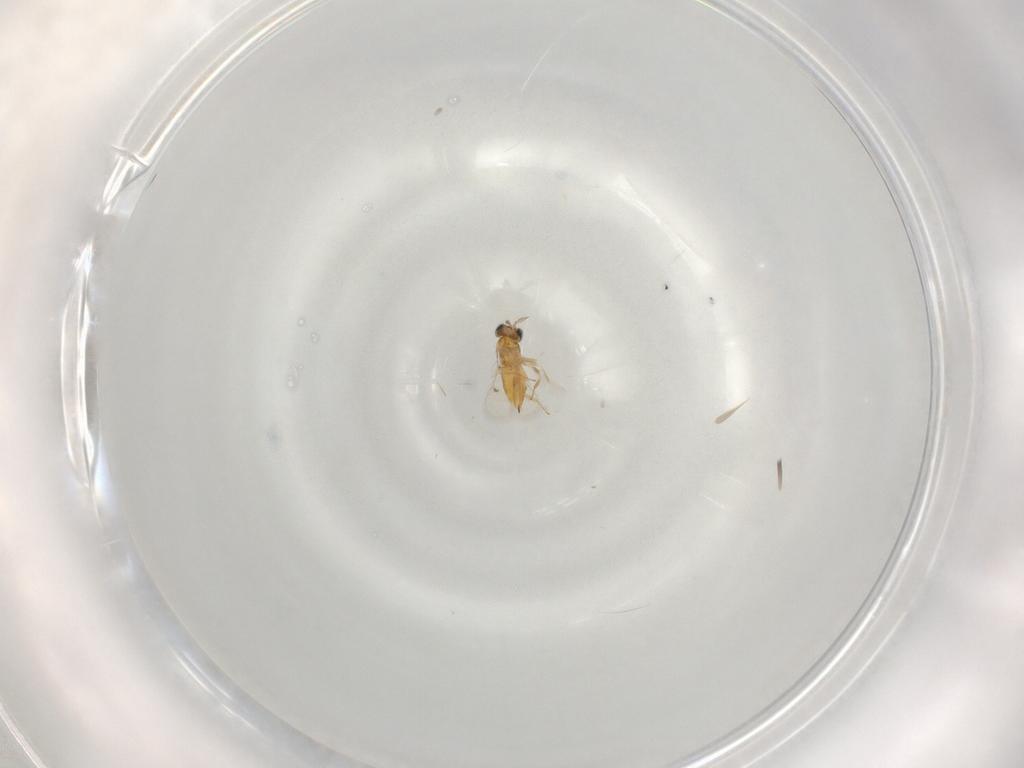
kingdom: Animalia
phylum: Arthropoda
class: Insecta
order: Hymenoptera
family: Braconidae
